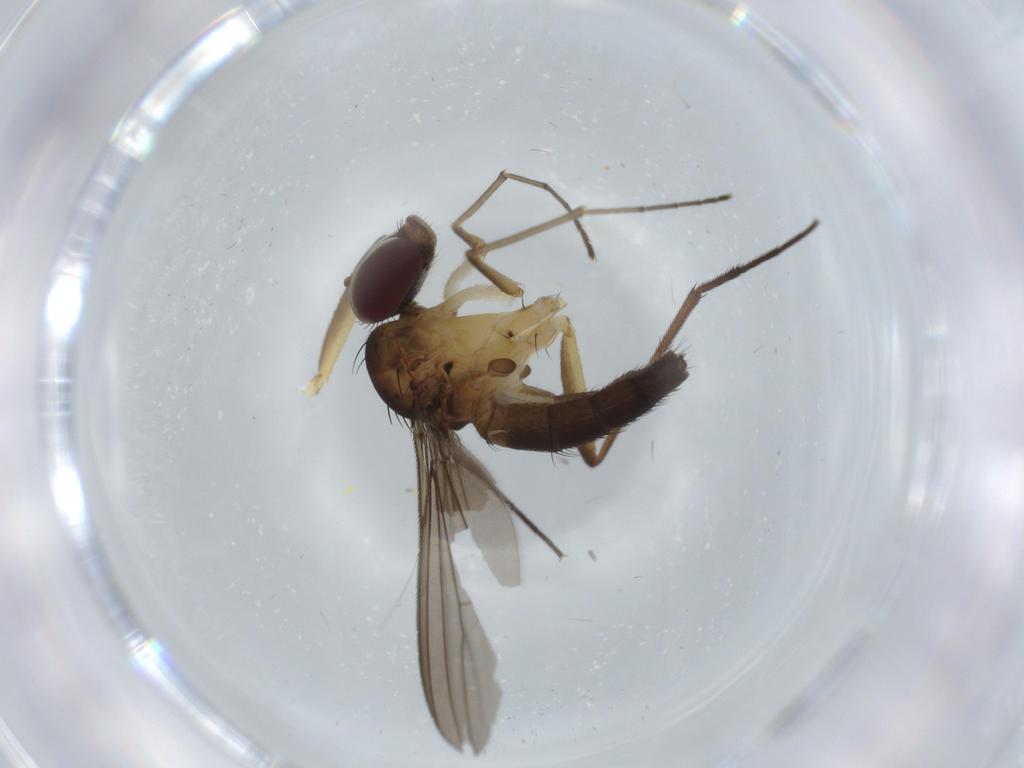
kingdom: Animalia
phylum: Arthropoda
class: Insecta
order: Diptera
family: Dolichopodidae
